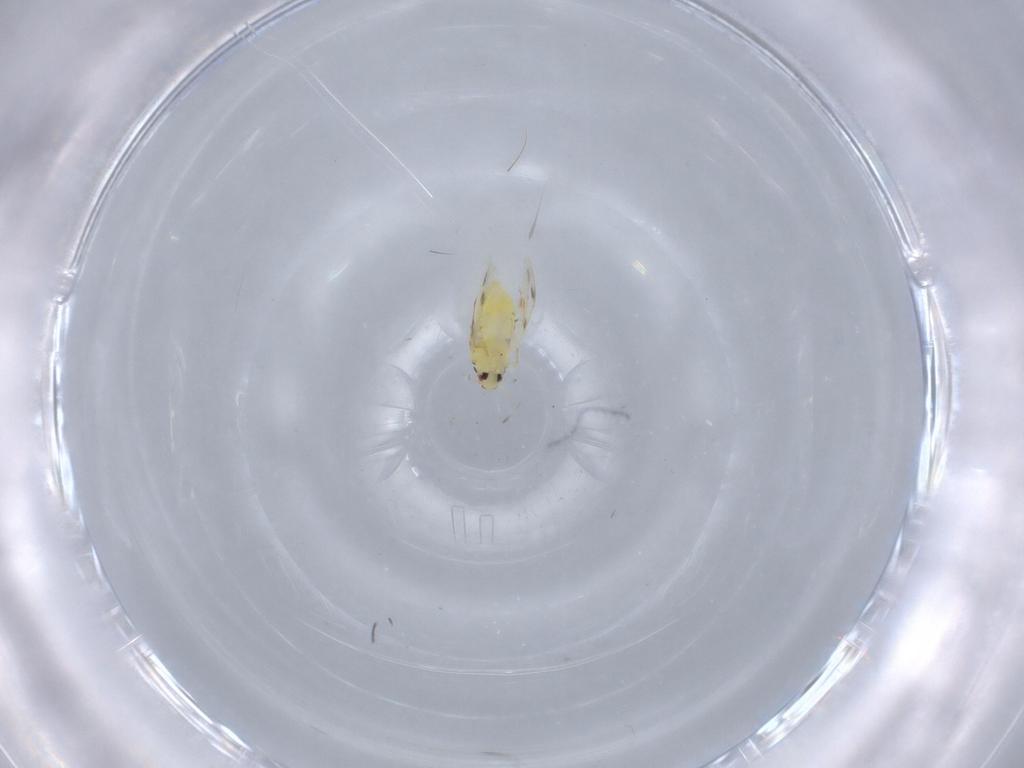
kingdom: Animalia
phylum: Arthropoda
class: Insecta
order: Hemiptera
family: Aleyrodidae
